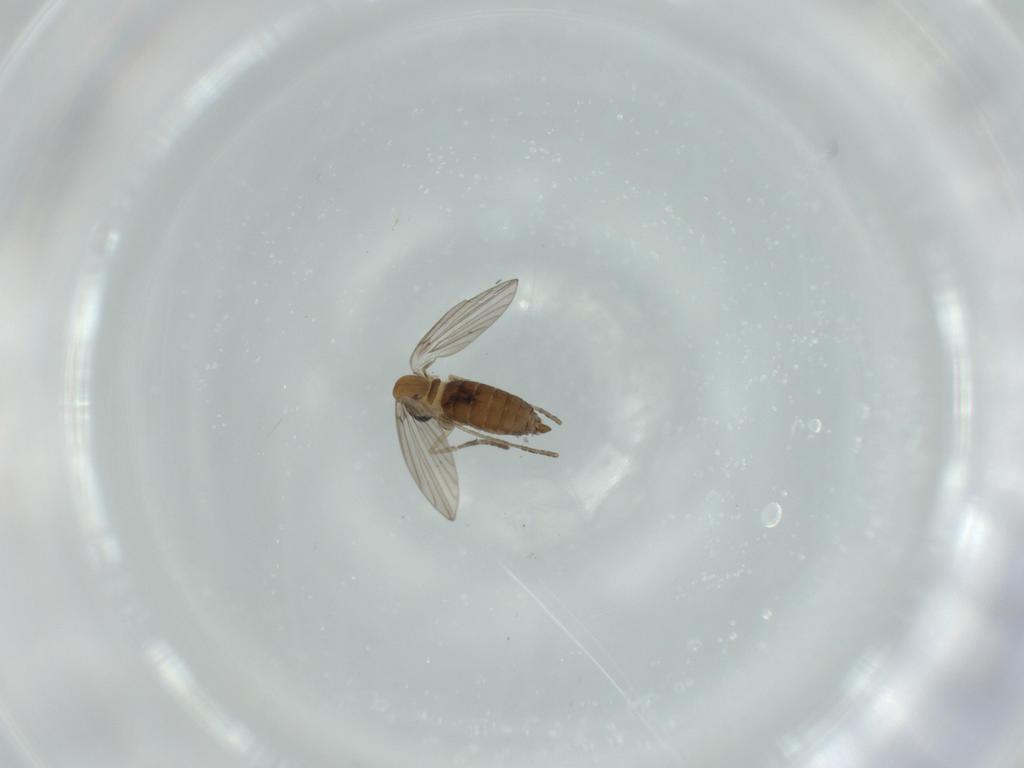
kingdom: Animalia
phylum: Arthropoda
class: Insecta
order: Diptera
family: Psychodidae
